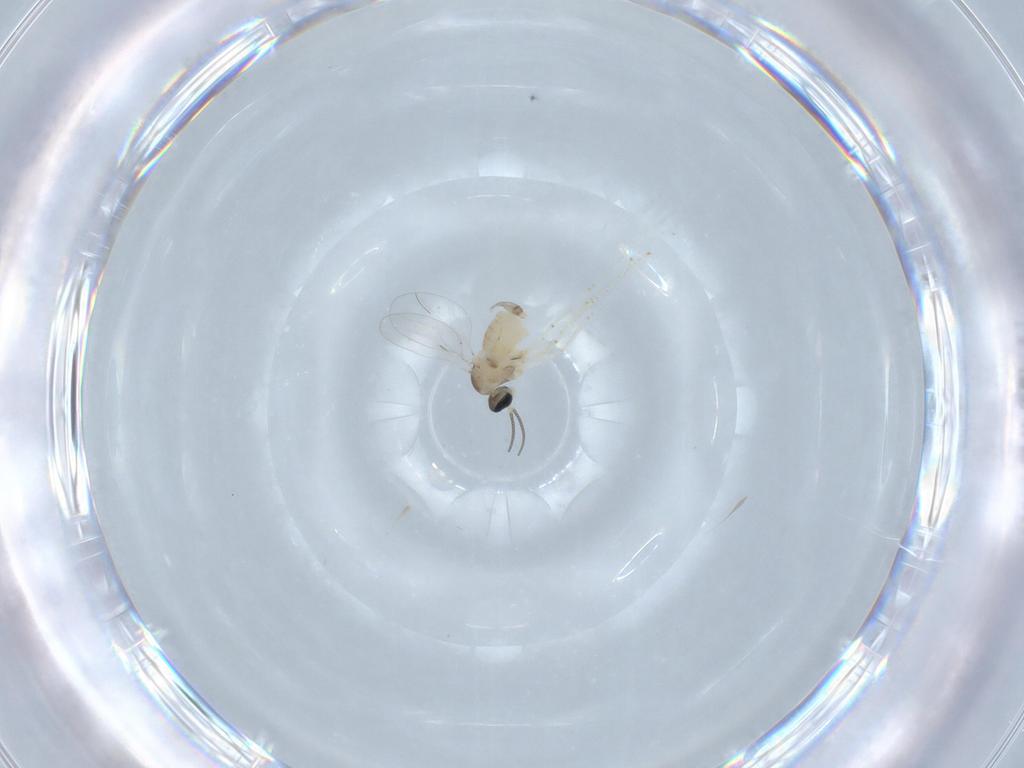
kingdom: Animalia
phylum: Arthropoda
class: Insecta
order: Diptera
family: Cecidomyiidae
